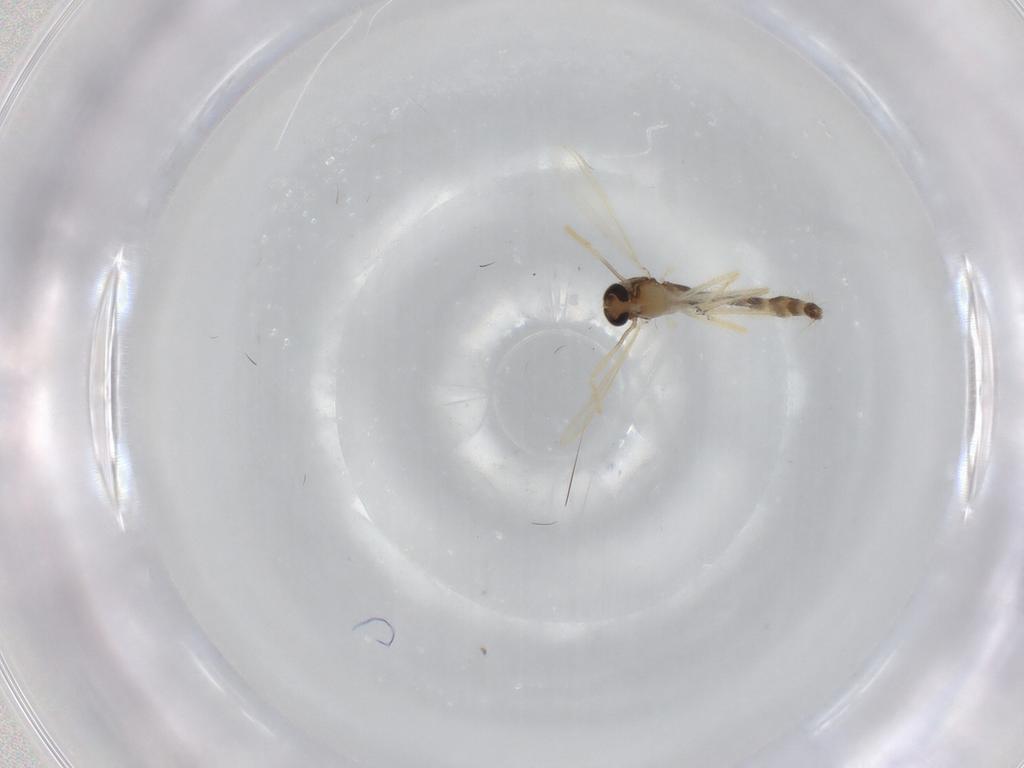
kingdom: Animalia
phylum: Arthropoda
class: Insecta
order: Diptera
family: Chironomidae
